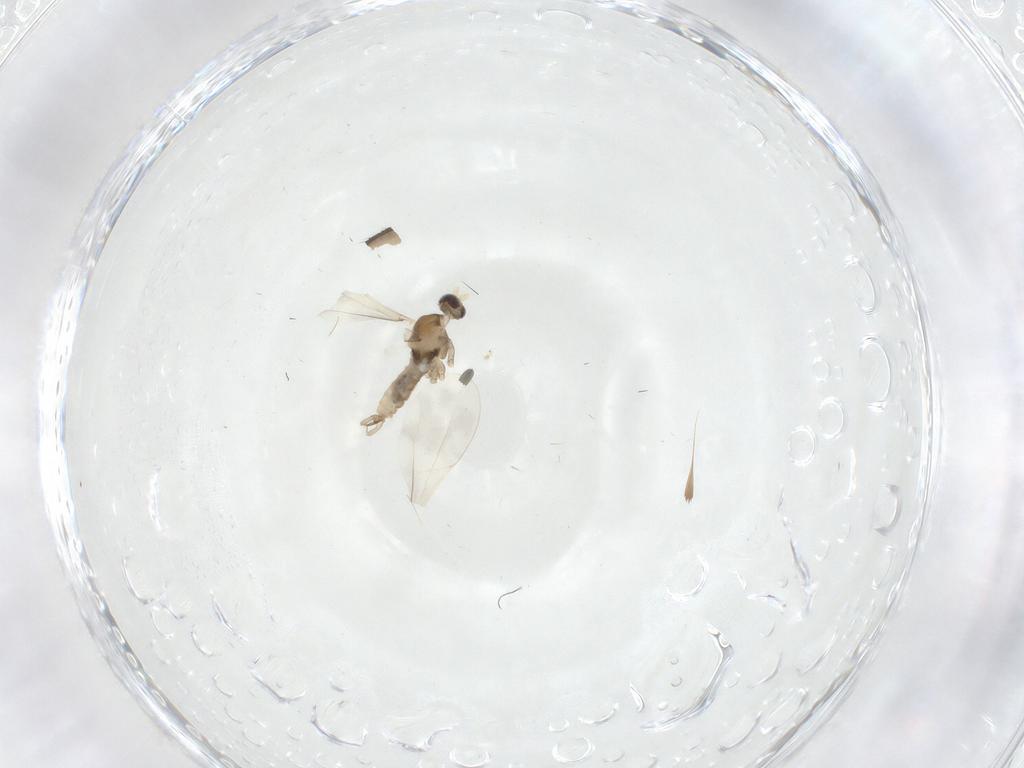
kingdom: Animalia
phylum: Arthropoda
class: Insecta
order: Diptera
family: Cecidomyiidae
